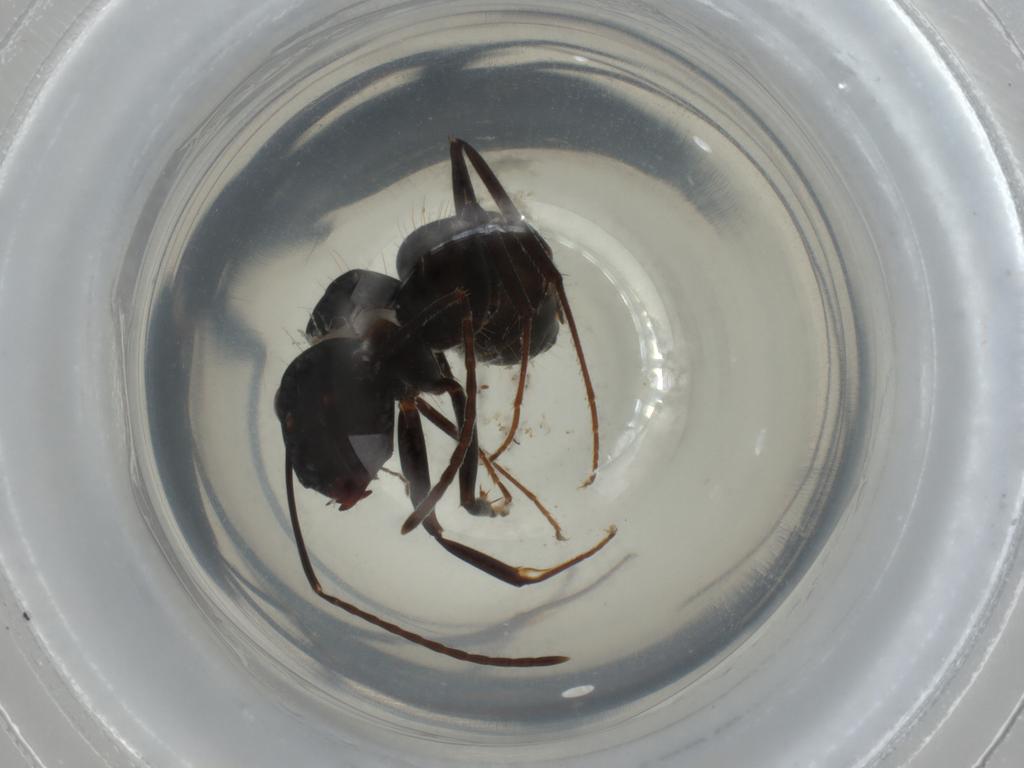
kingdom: Animalia
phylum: Arthropoda
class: Insecta
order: Hymenoptera
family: Formicidae
